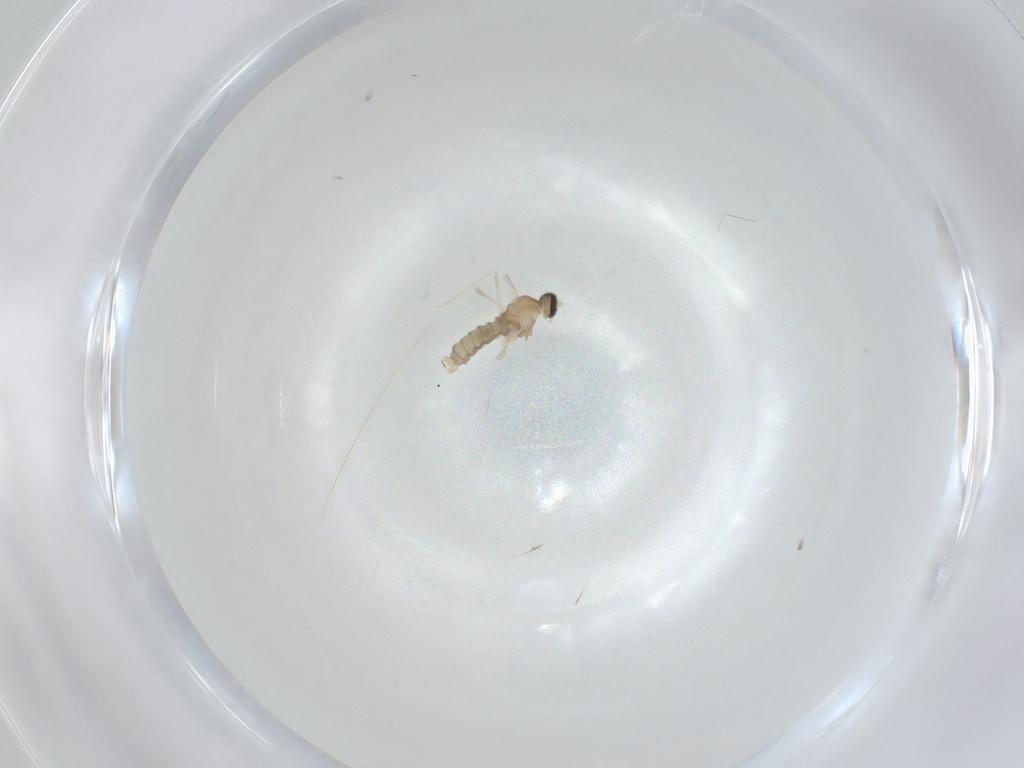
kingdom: Animalia
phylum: Arthropoda
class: Insecta
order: Diptera
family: Cecidomyiidae
